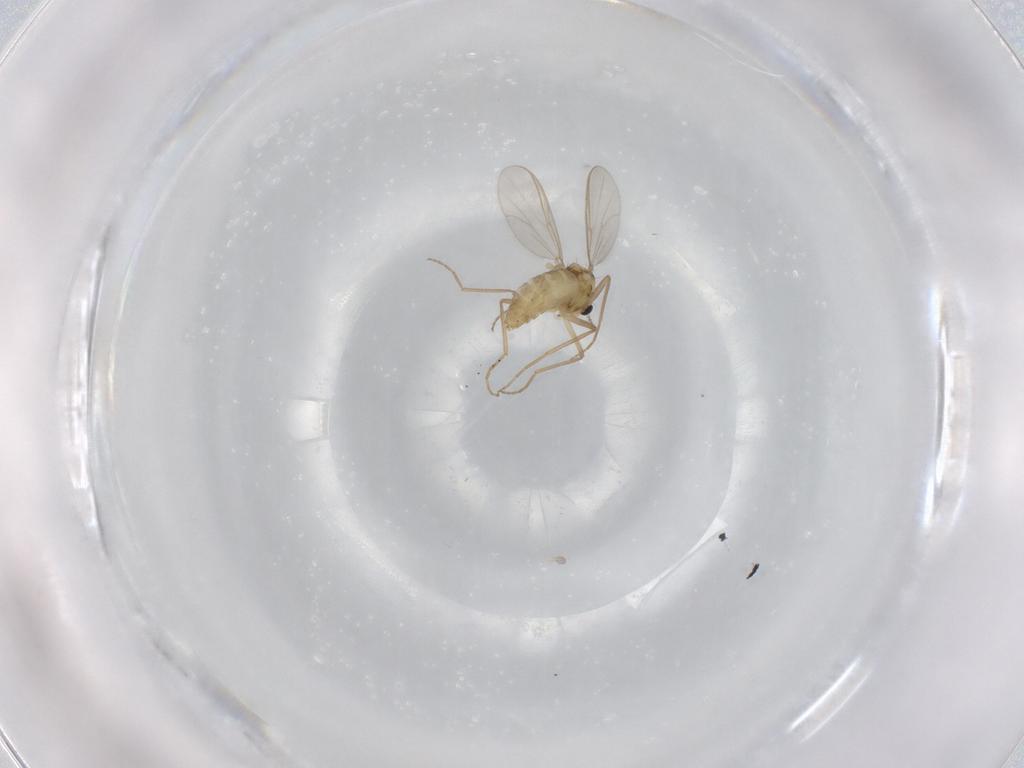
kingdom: Animalia
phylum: Arthropoda
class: Insecta
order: Diptera
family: Chironomidae
